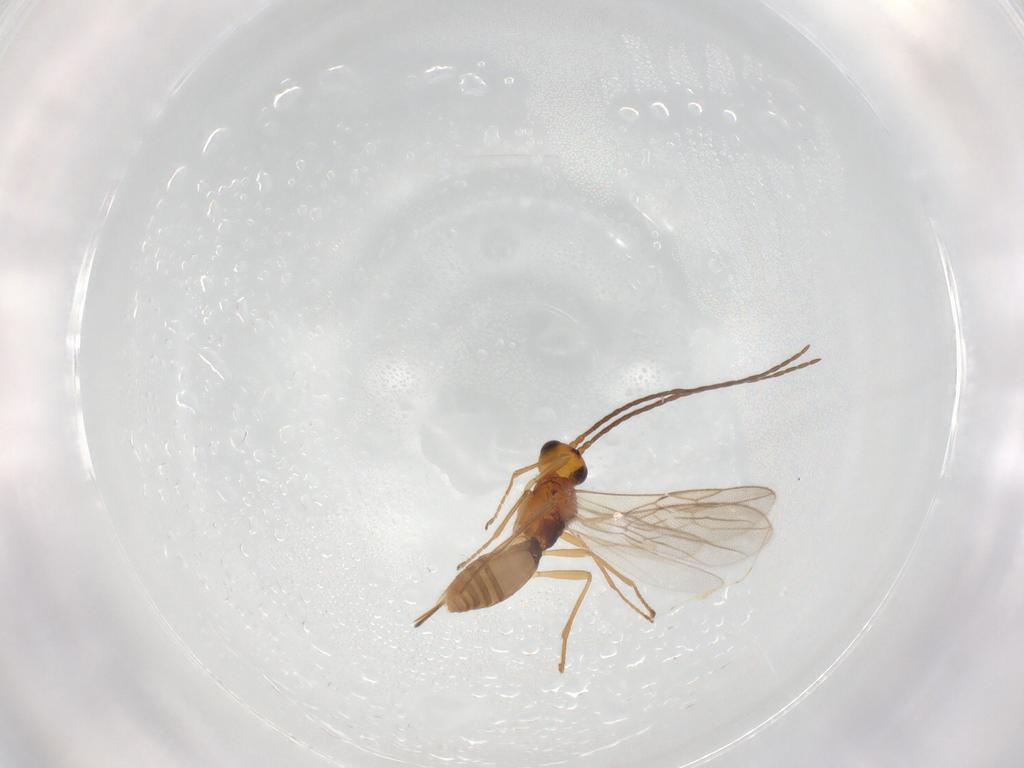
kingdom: Animalia
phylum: Arthropoda
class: Insecta
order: Hymenoptera
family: Braconidae
